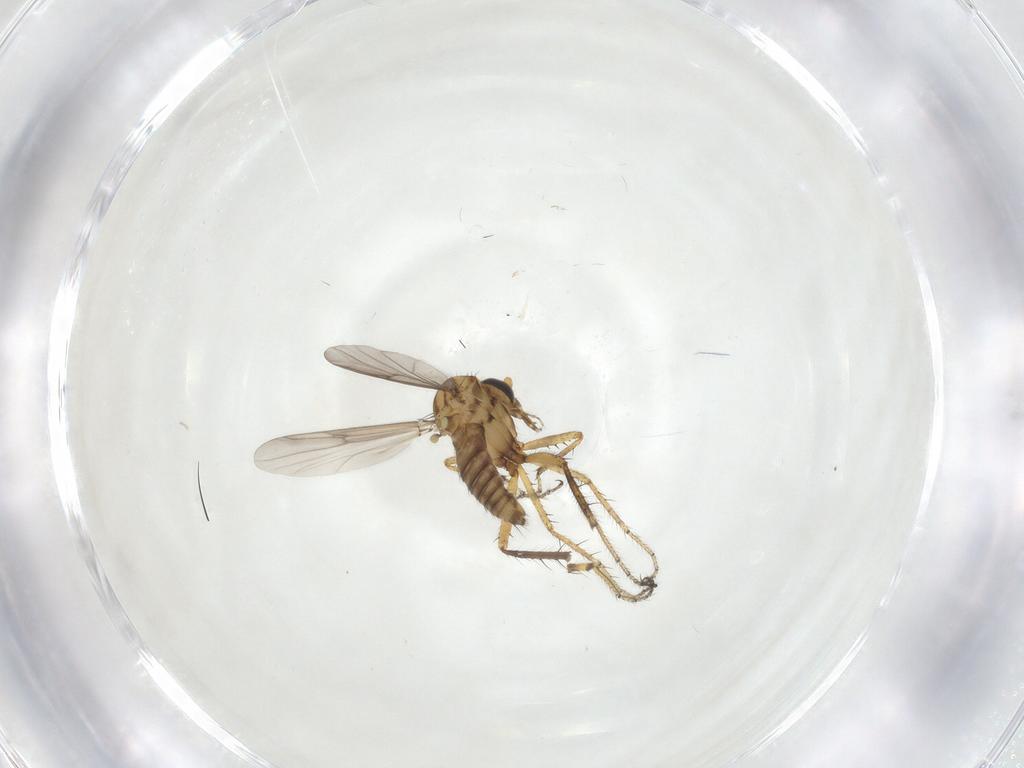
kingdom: Animalia
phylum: Arthropoda
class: Insecta
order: Diptera
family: Ceratopogonidae
